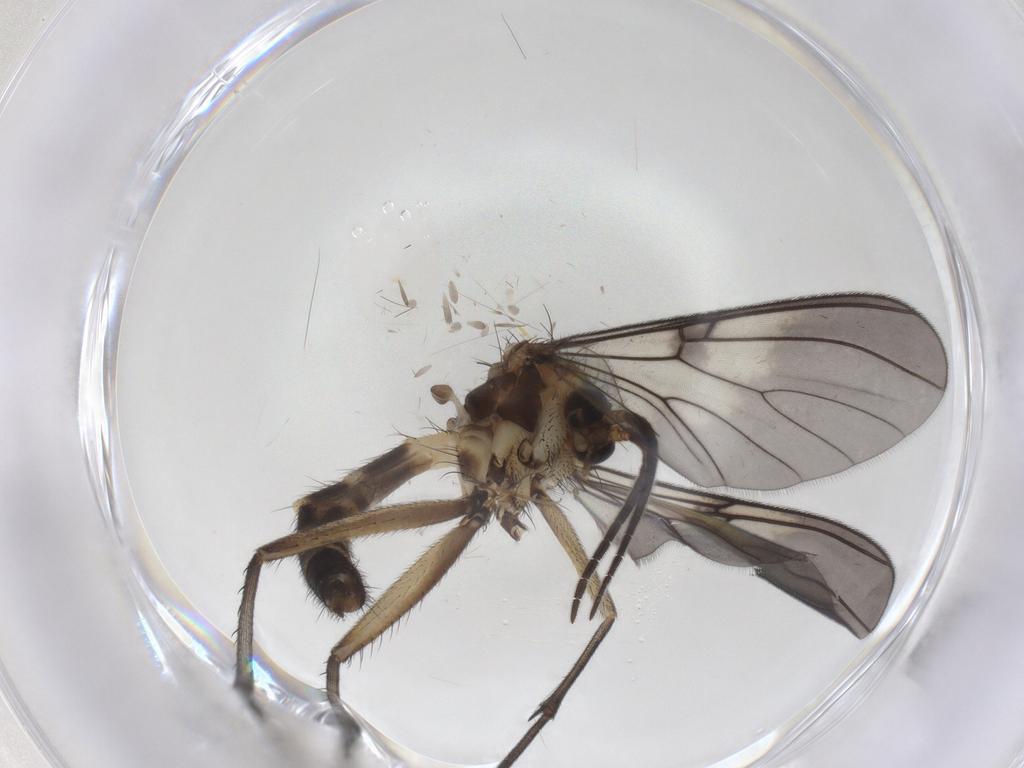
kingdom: Animalia
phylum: Arthropoda
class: Insecta
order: Diptera
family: Mycetophilidae
